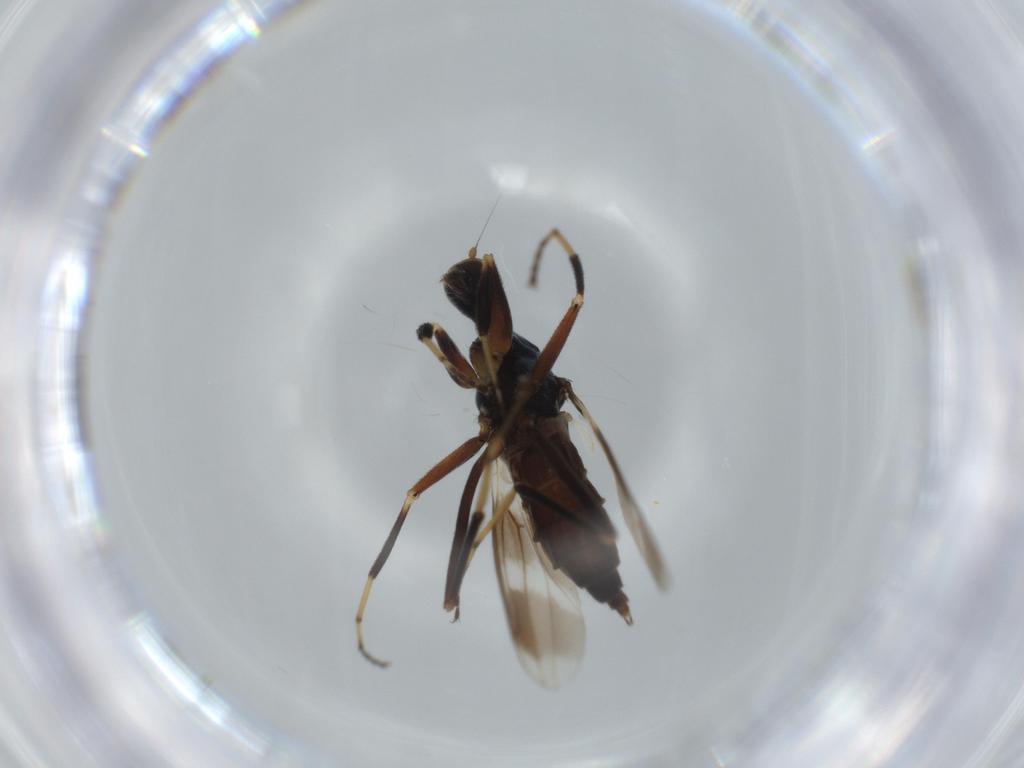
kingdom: Animalia
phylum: Arthropoda
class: Insecta
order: Diptera
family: Hybotidae
